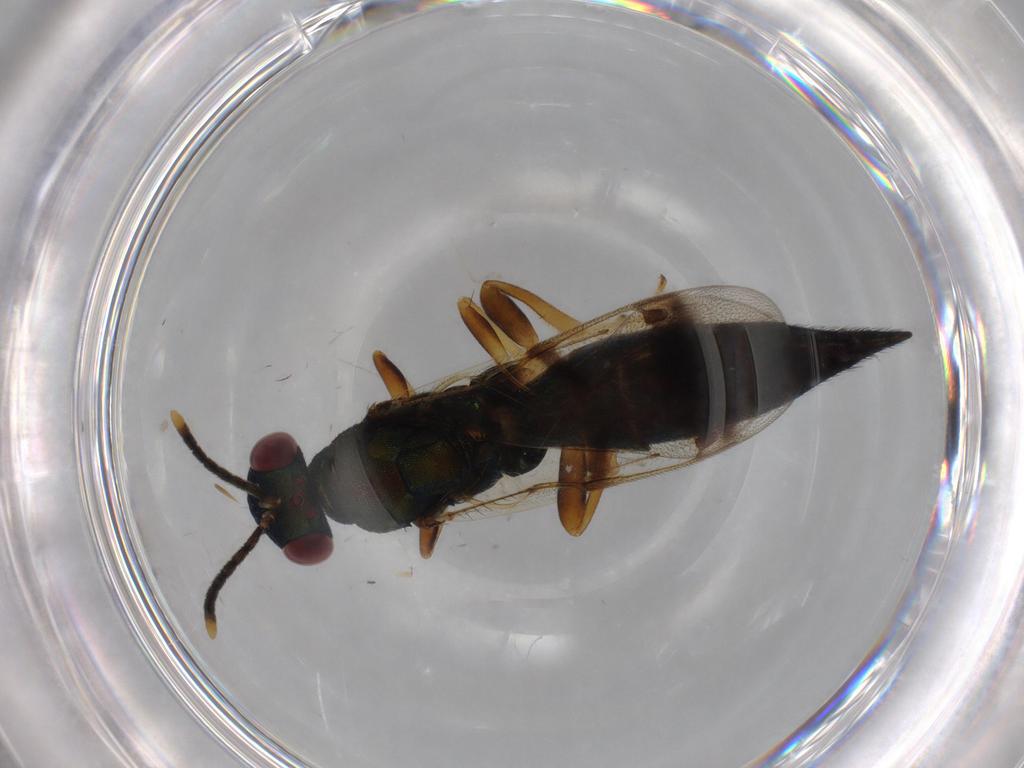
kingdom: Animalia
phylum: Arthropoda
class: Insecta
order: Hymenoptera
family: Pteromalidae
